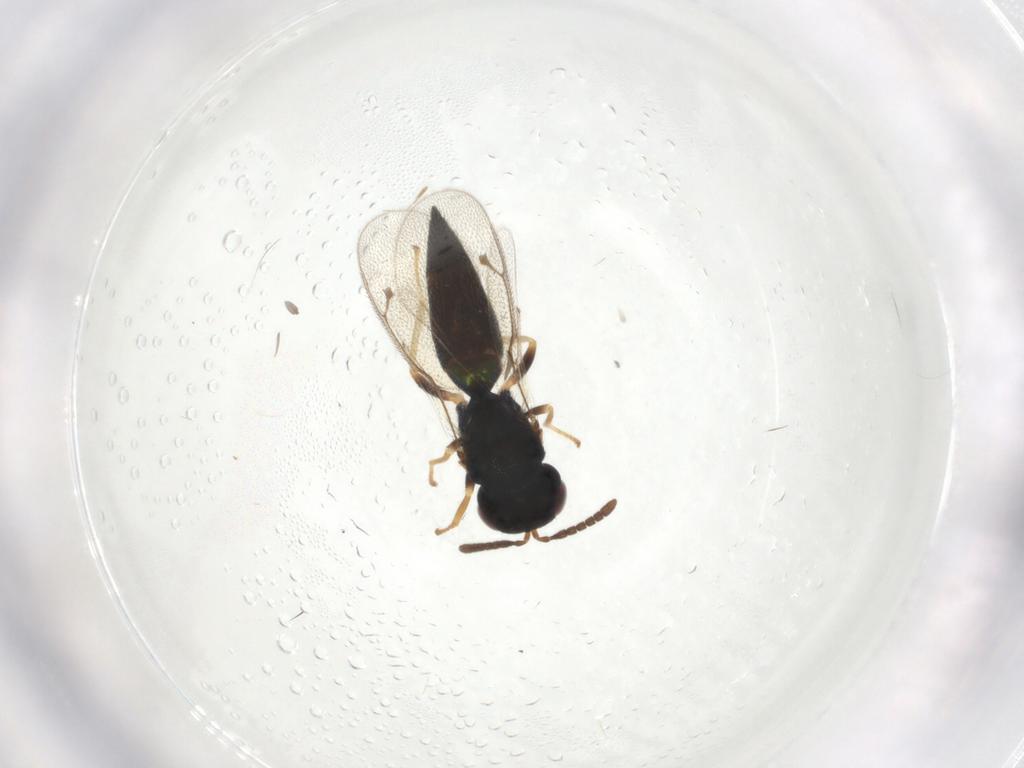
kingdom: Animalia
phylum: Arthropoda
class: Insecta
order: Hymenoptera
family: Pteromalidae
